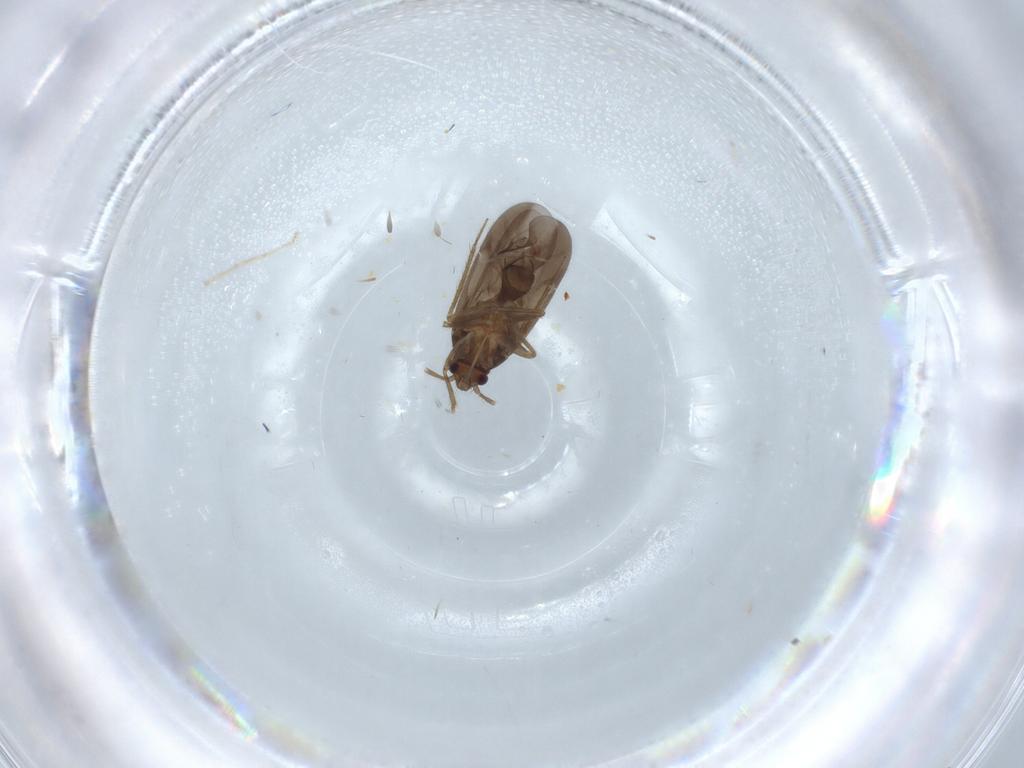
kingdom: Animalia
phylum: Arthropoda
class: Insecta
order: Hemiptera
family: Ceratocombidae
